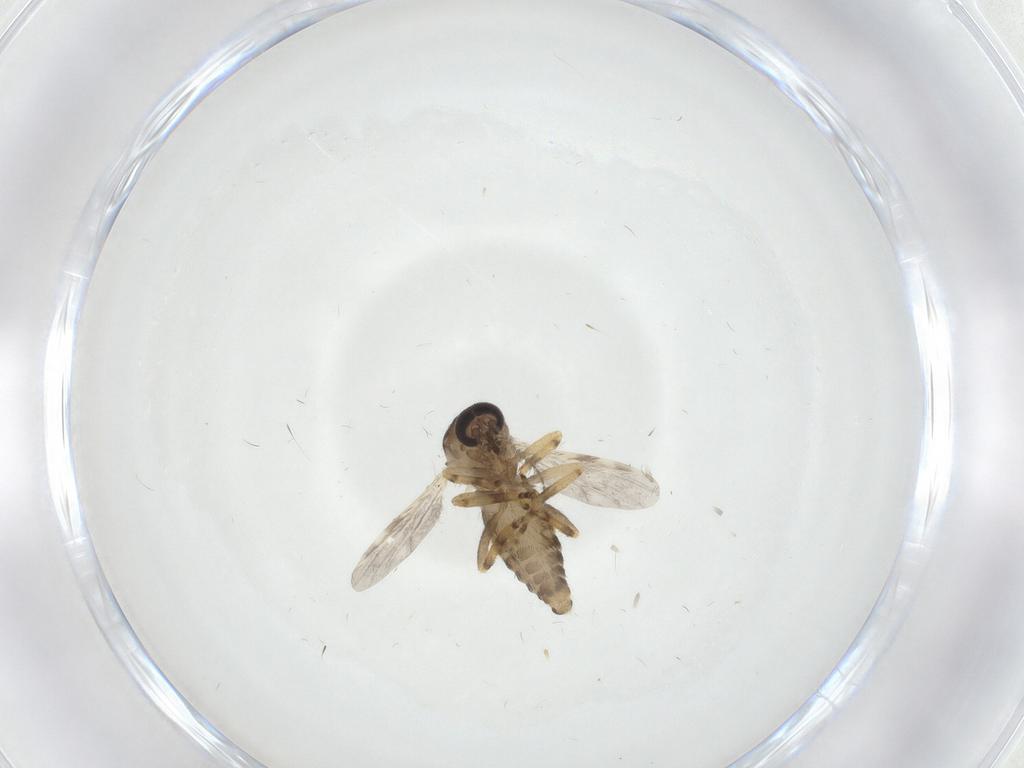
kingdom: Animalia
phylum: Arthropoda
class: Insecta
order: Diptera
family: Ceratopogonidae
